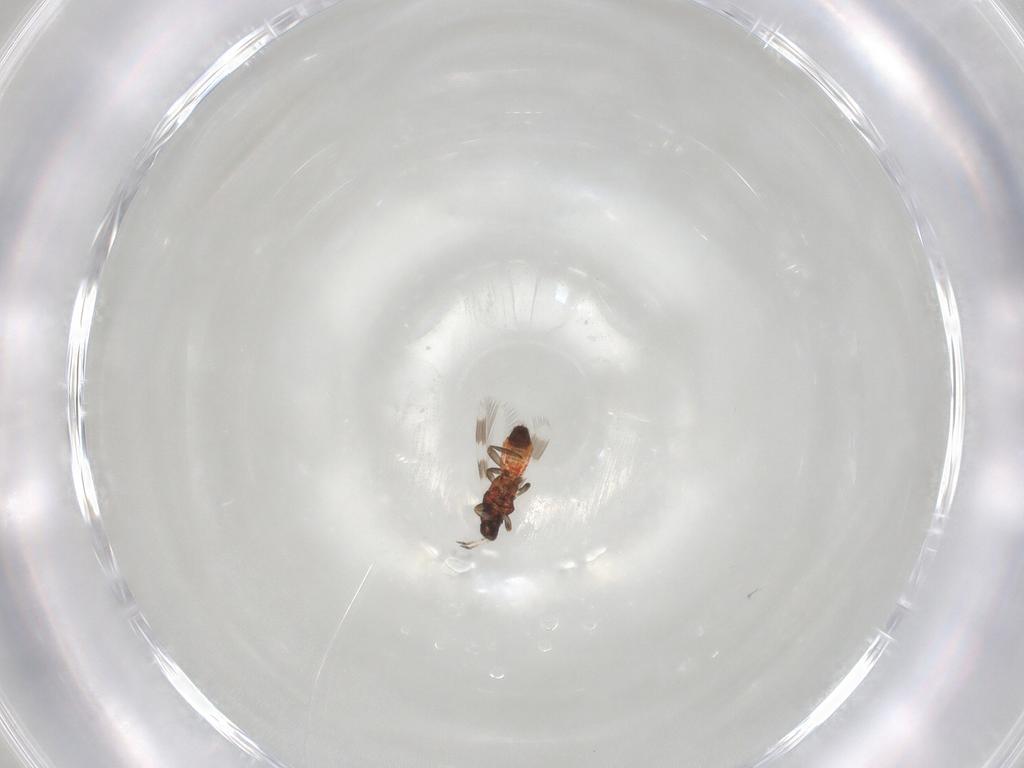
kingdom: Animalia
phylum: Arthropoda
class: Insecta
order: Thysanoptera
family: Aeolothripidae
